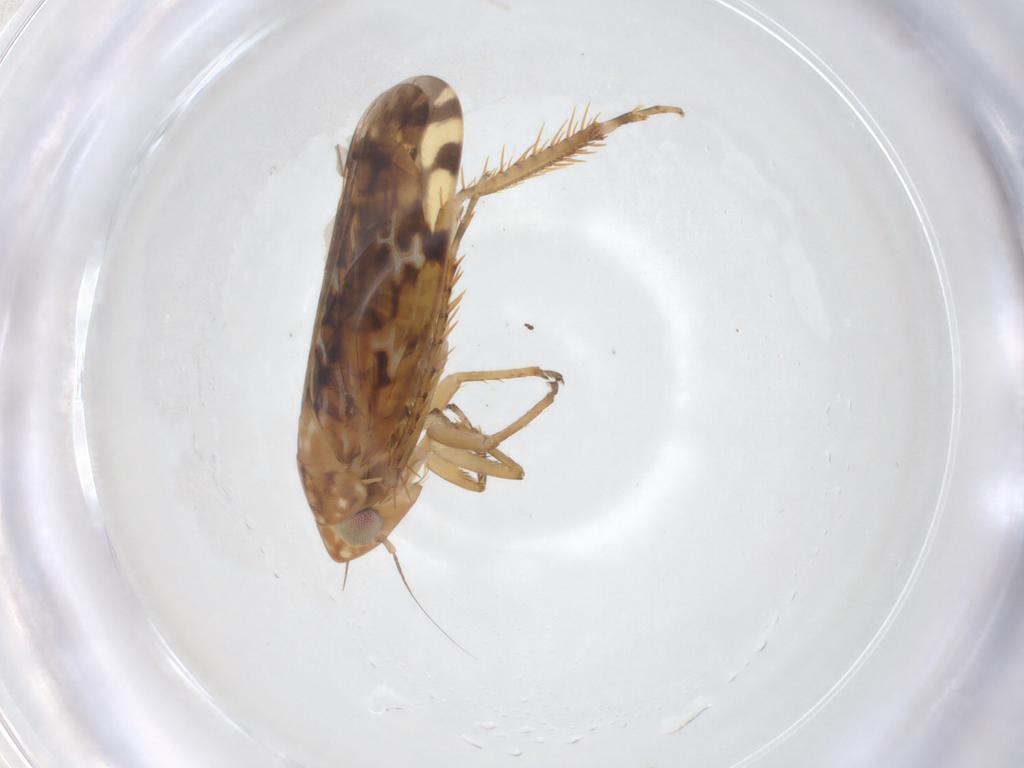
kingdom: Animalia
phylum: Arthropoda
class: Insecta
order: Hemiptera
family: Cicadellidae
